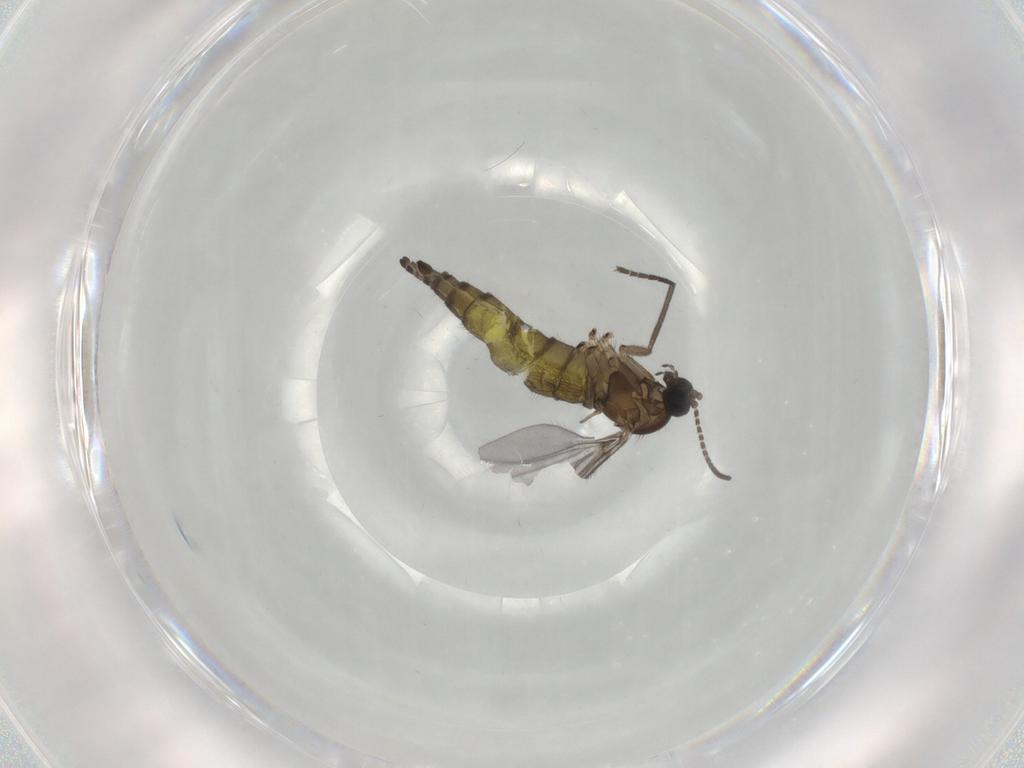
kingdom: Animalia
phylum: Arthropoda
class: Insecta
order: Diptera
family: Sciaridae
